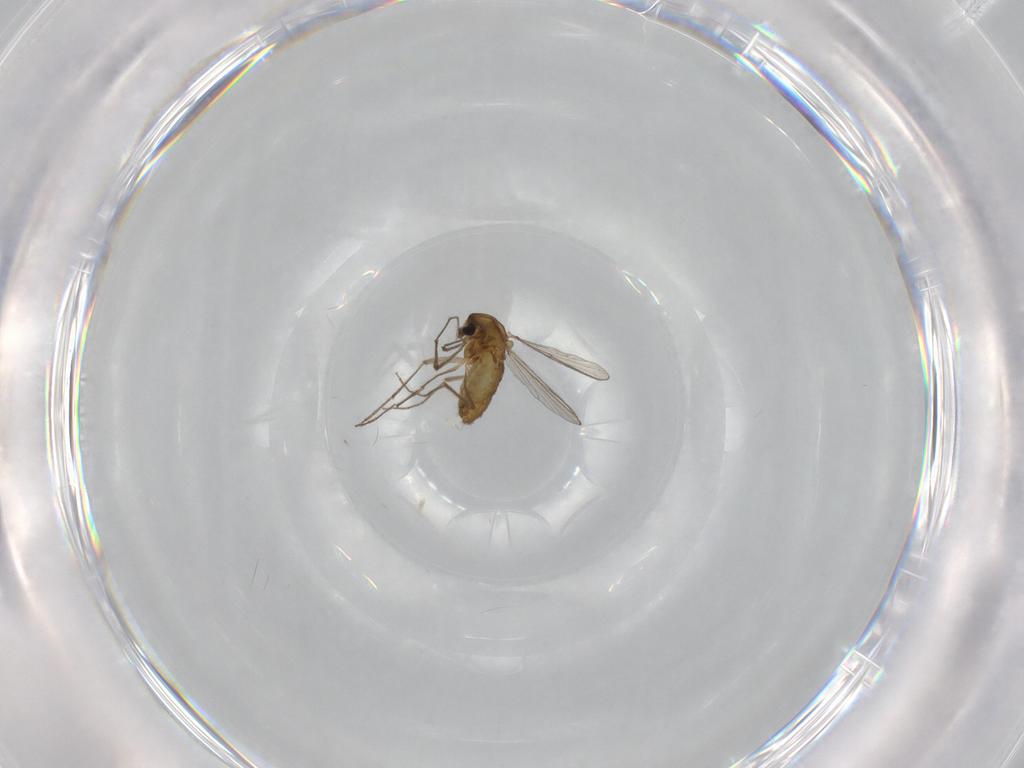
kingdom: Animalia
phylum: Arthropoda
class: Insecta
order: Diptera
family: Chironomidae
